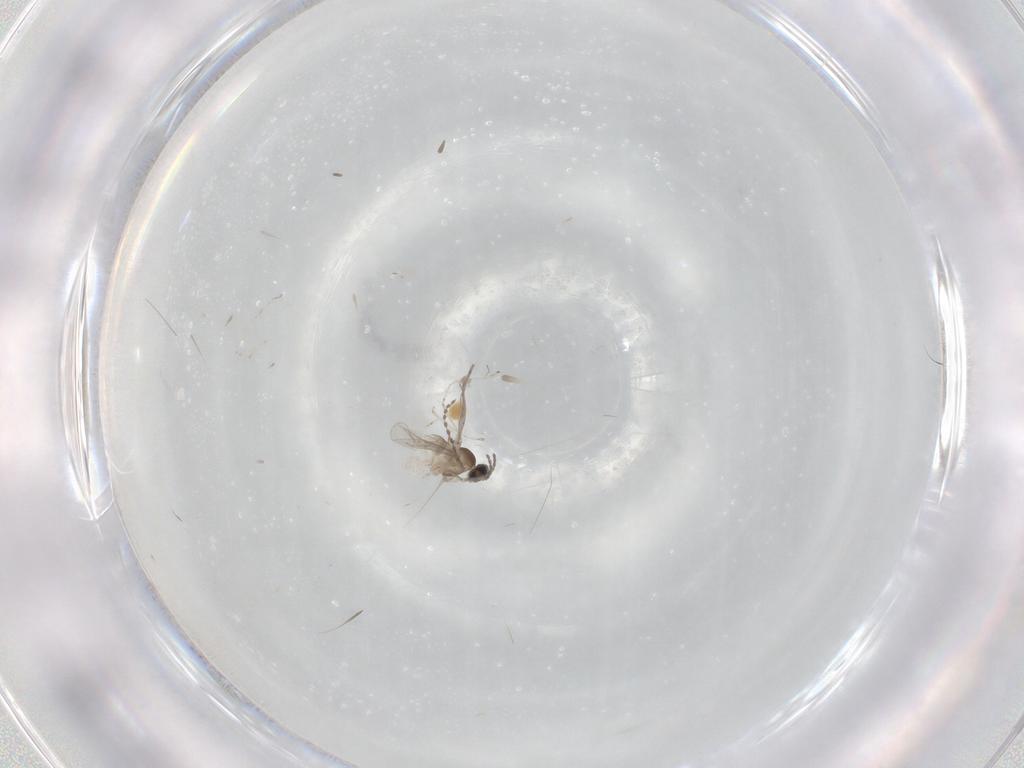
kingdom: Animalia
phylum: Arthropoda
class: Insecta
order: Diptera
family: Cecidomyiidae
